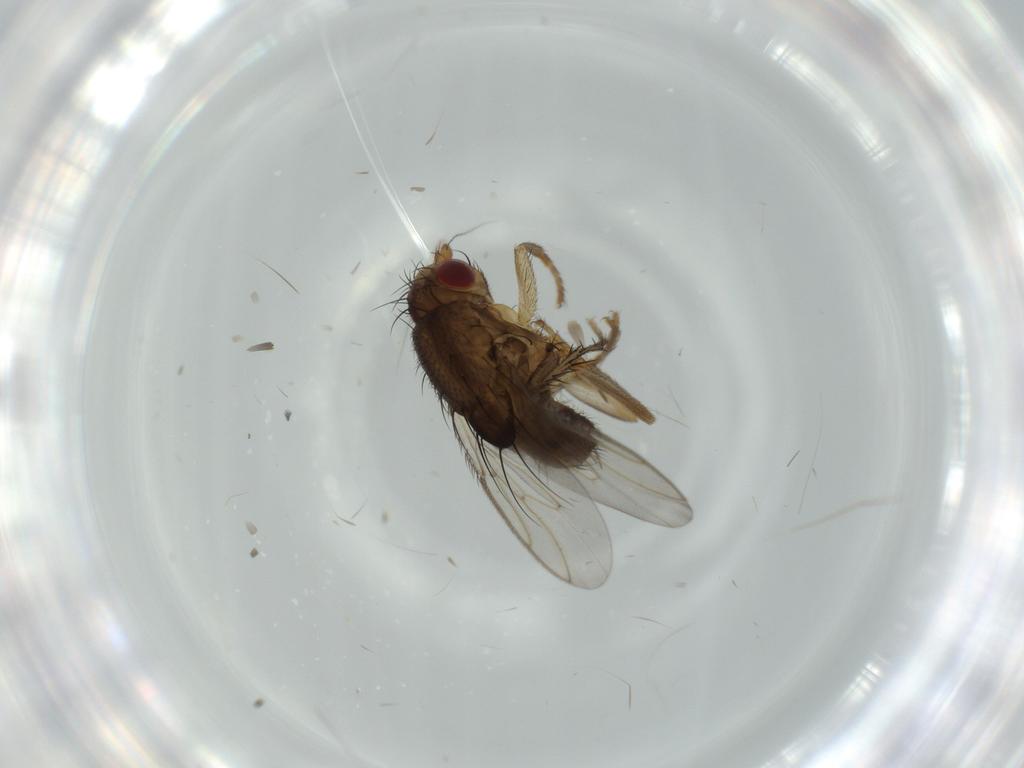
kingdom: Animalia
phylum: Arthropoda
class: Insecta
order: Diptera
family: Sphaeroceridae
